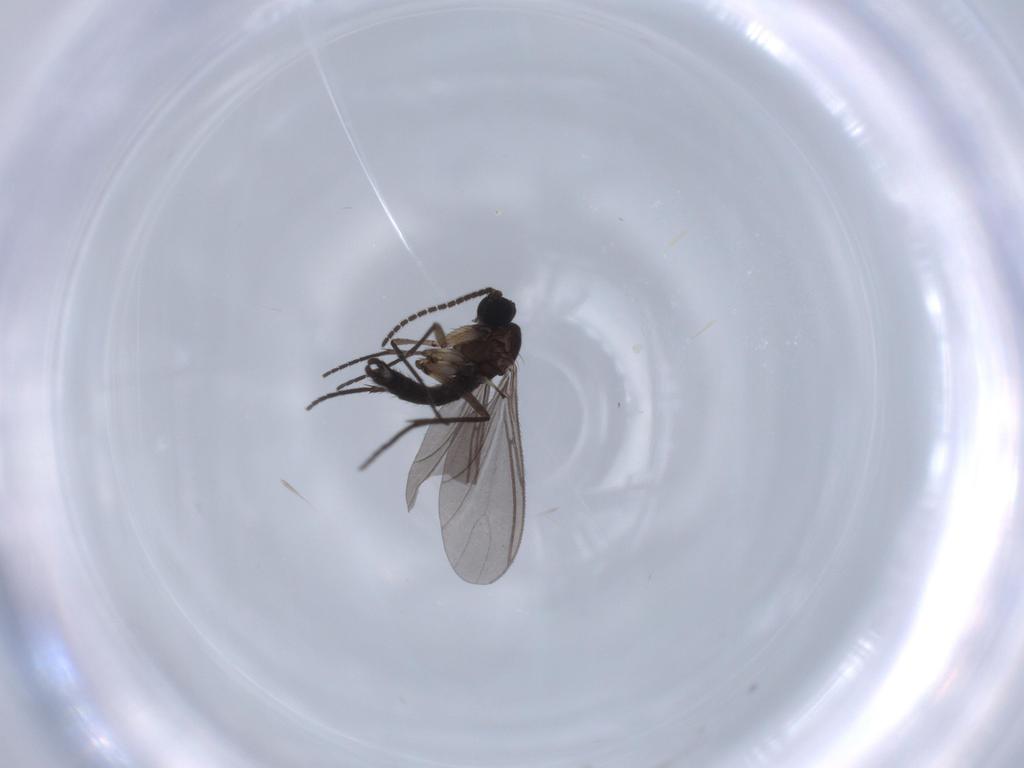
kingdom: Animalia
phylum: Arthropoda
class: Insecta
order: Diptera
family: Sciaridae
